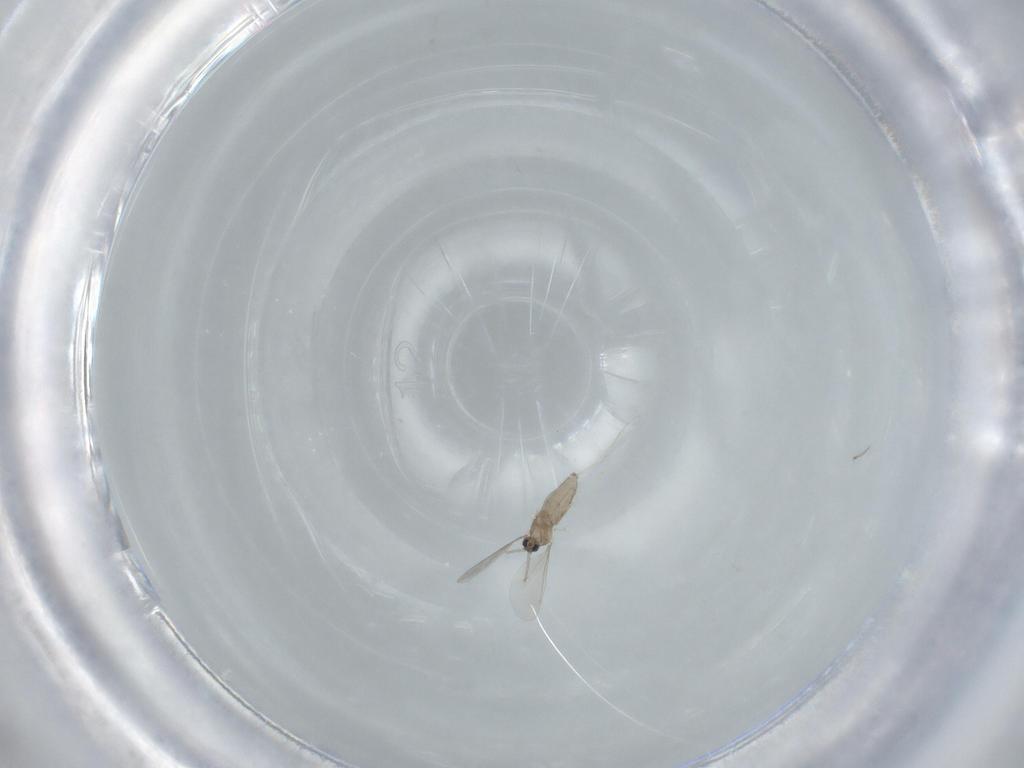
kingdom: Animalia
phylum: Arthropoda
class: Insecta
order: Diptera
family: Cecidomyiidae
